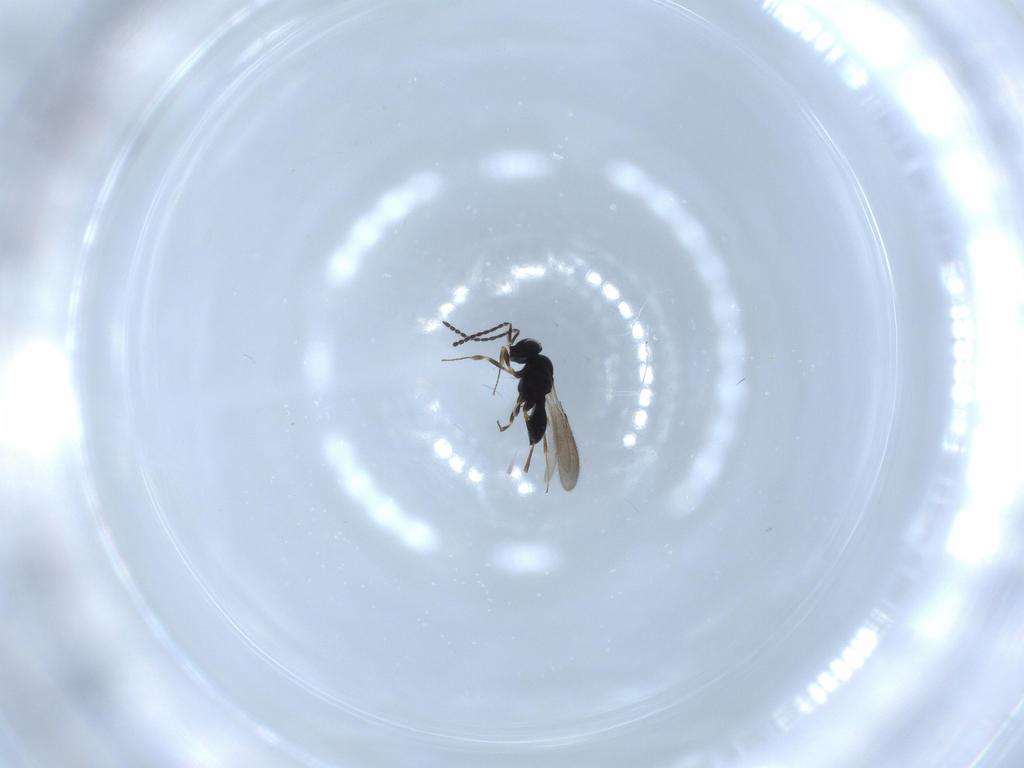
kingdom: Animalia
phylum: Arthropoda
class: Insecta
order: Hymenoptera
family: Scelionidae
